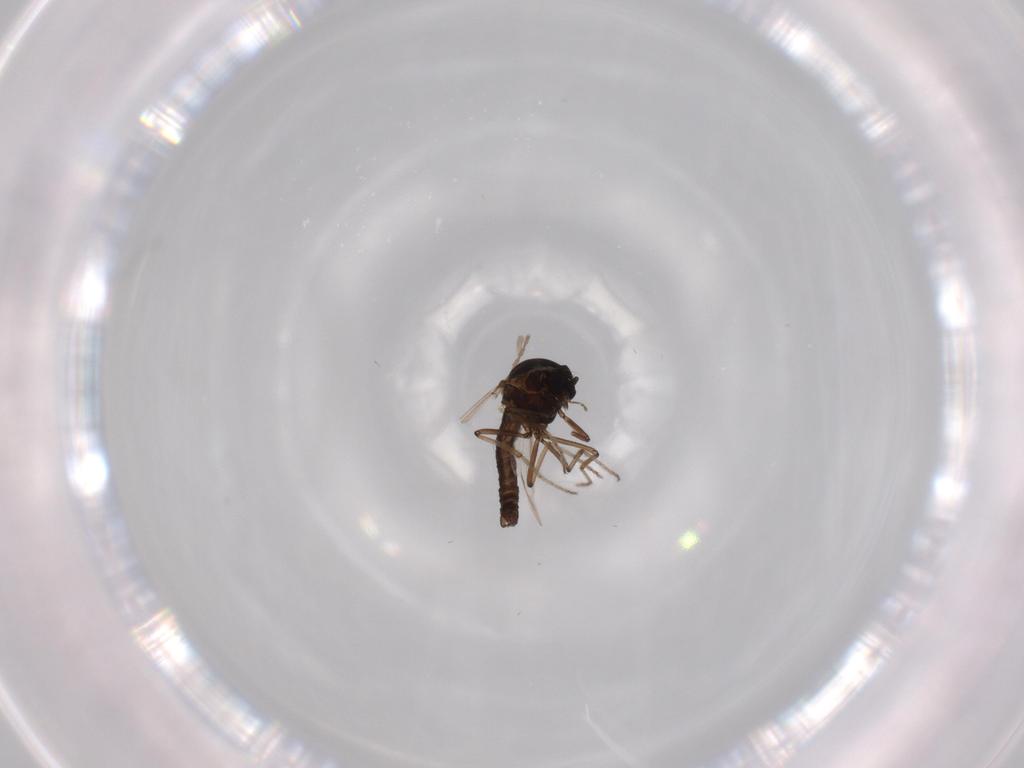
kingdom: Animalia
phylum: Arthropoda
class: Insecta
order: Diptera
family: Ceratopogonidae
